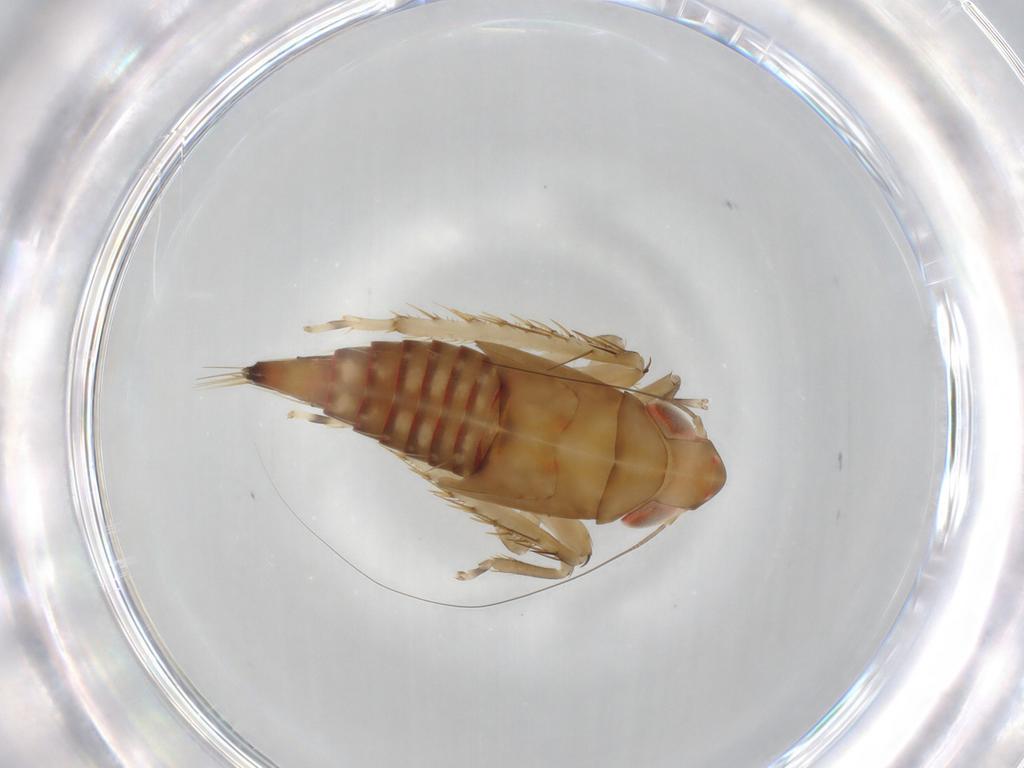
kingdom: Animalia
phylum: Arthropoda
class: Insecta
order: Hemiptera
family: Cicadellidae
